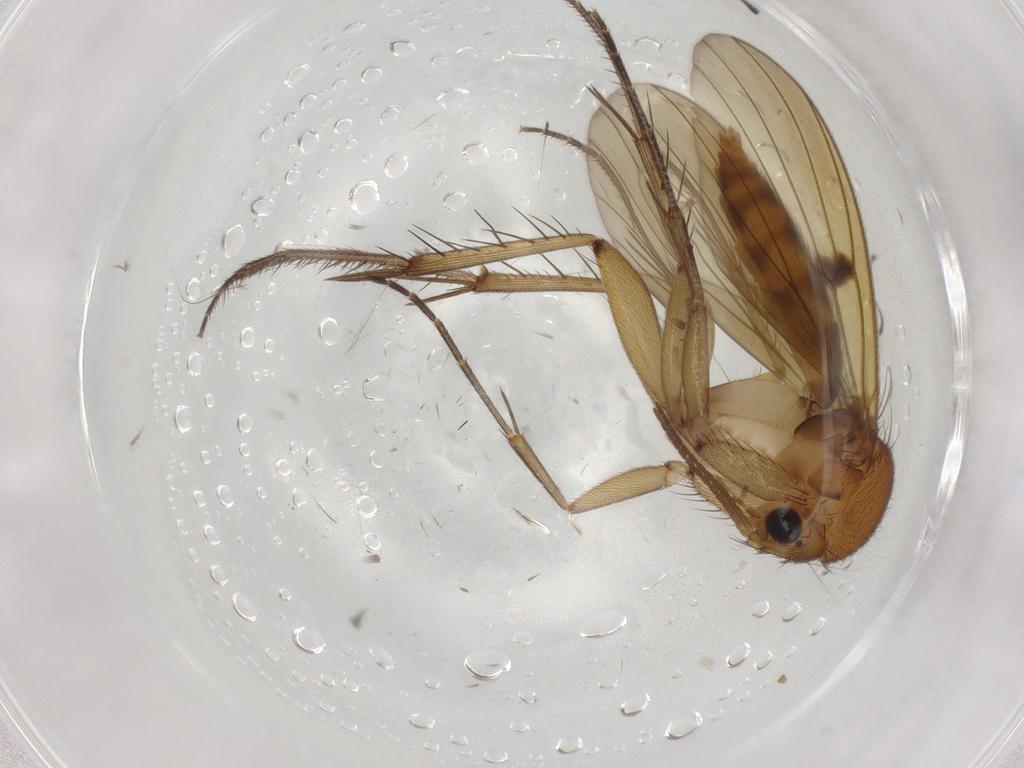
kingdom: Animalia
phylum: Arthropoda
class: Insecta
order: Diptera
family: Mycetophilidae
